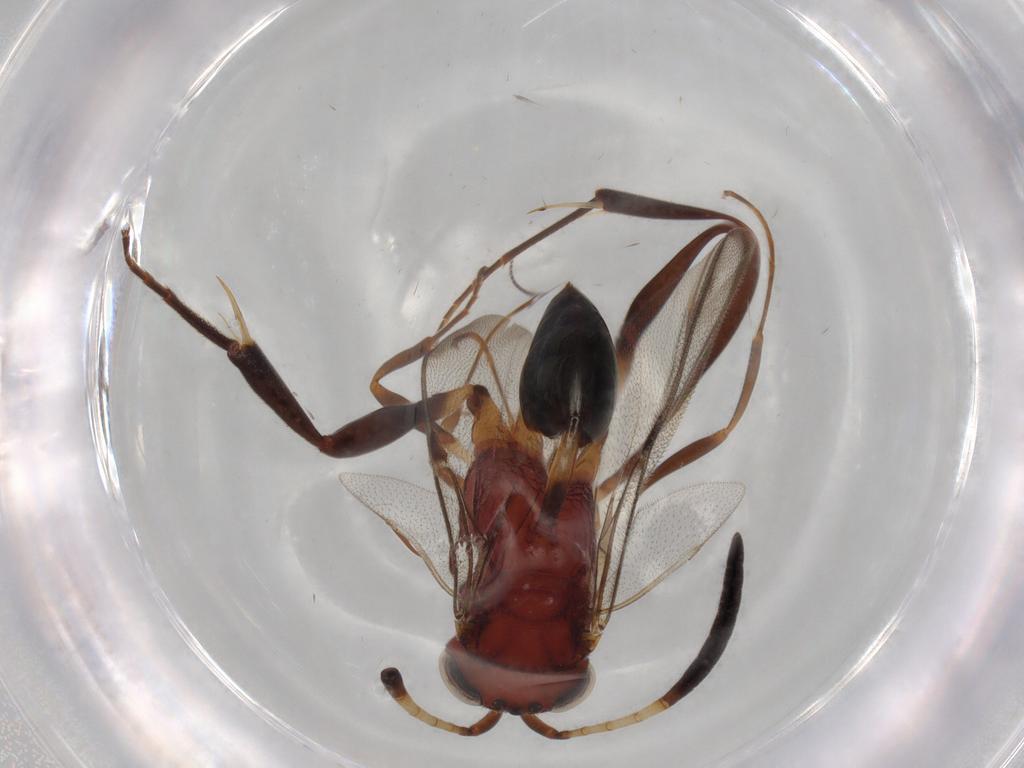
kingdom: Animalia
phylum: Arthropoda
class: Insecta
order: Hymenoptera
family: Evaniidae
